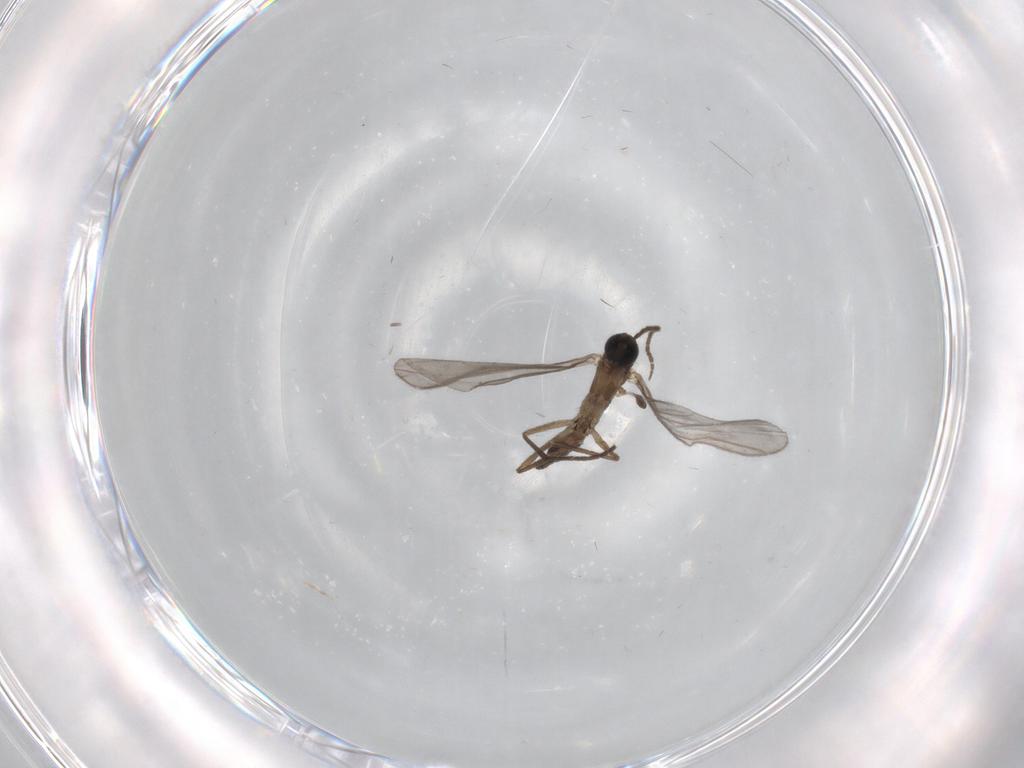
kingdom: Animalia
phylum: Arthropoda
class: Insecta
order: Diptera
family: Sciaridae
